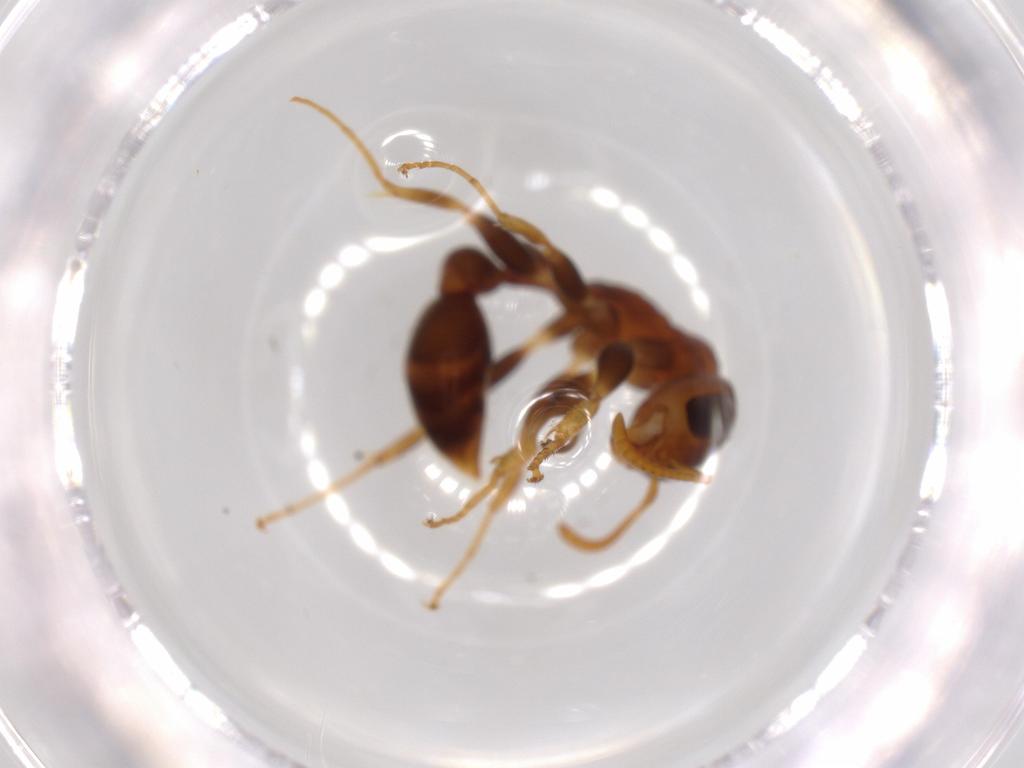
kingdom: Animalia
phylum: Arthropoda
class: Insecta
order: Hymenoptera
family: Formicidae
